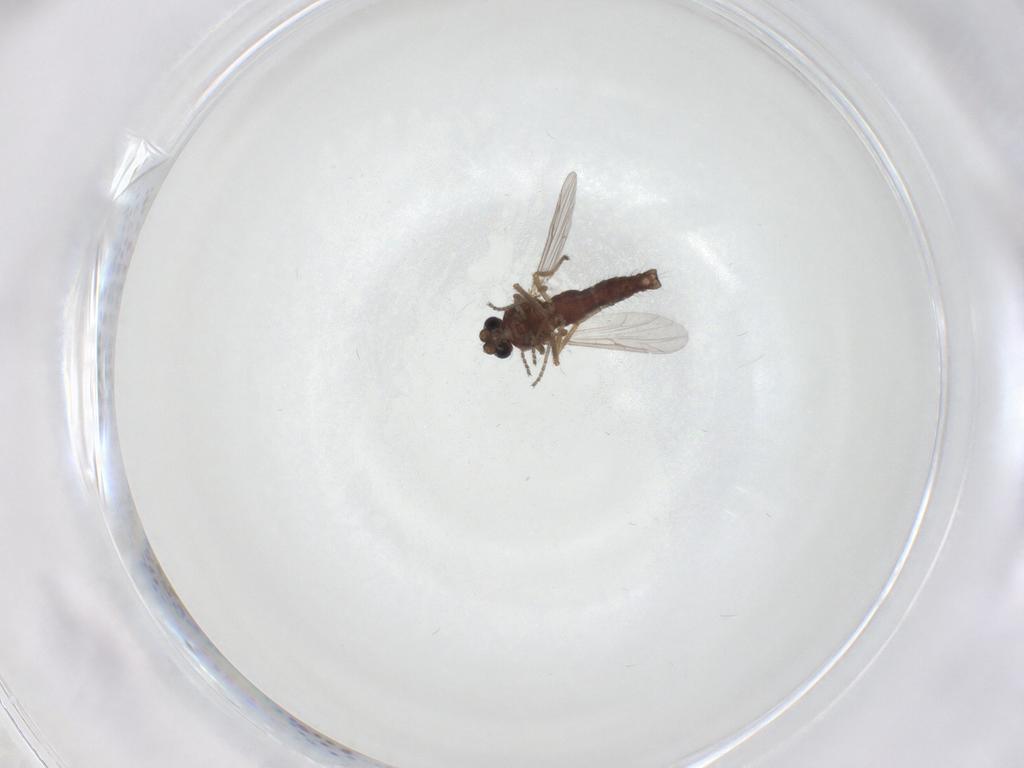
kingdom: Animalia
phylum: Arthropoda
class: Insecta
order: Diptera
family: Ceratopogonidae
